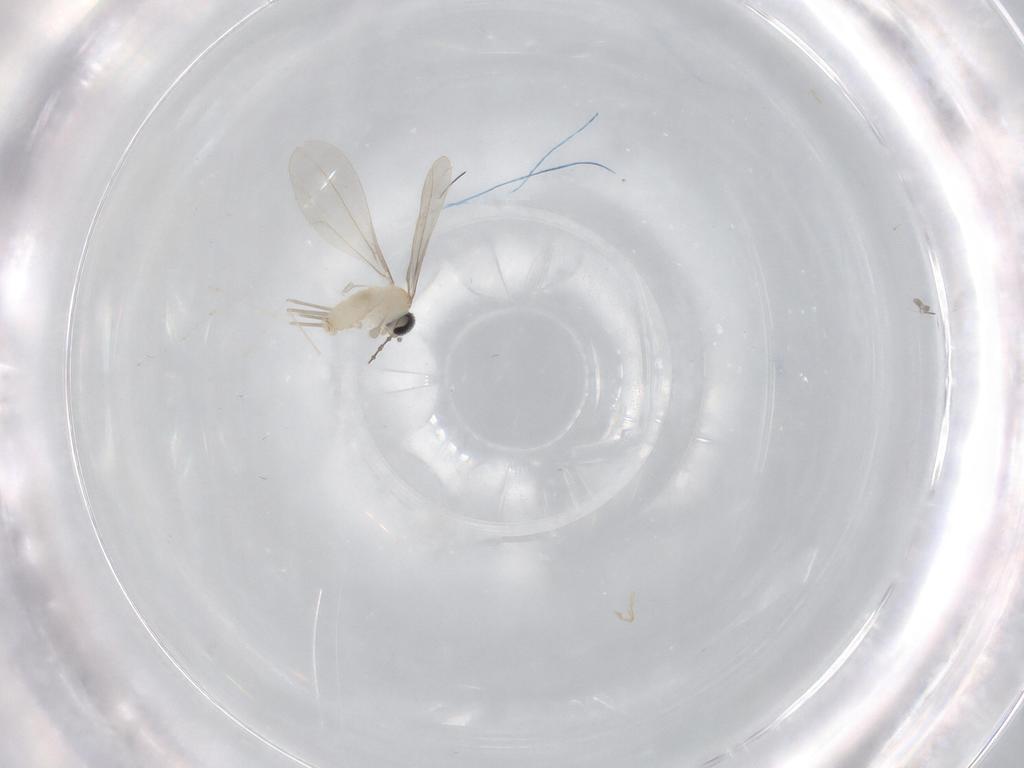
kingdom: Animalia
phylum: Arthropoda
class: Insecta
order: Diptera
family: Cecidomyiidae
